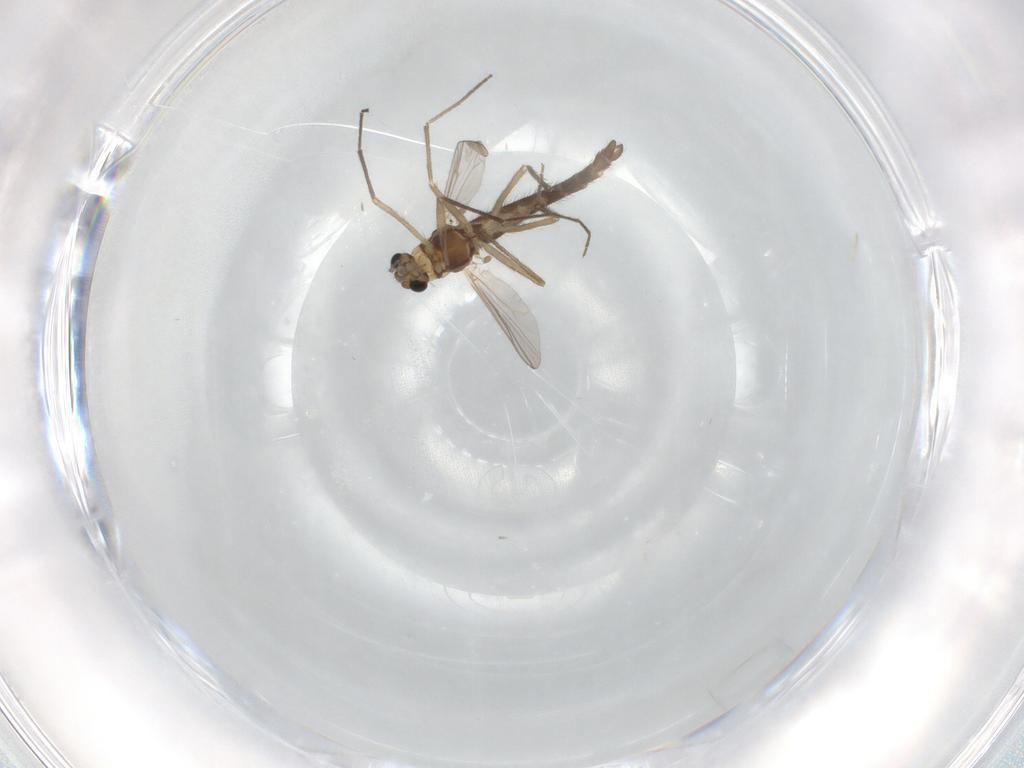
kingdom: Animalia
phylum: Arthropoda
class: Insecta
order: Diptera
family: Chironomidae
